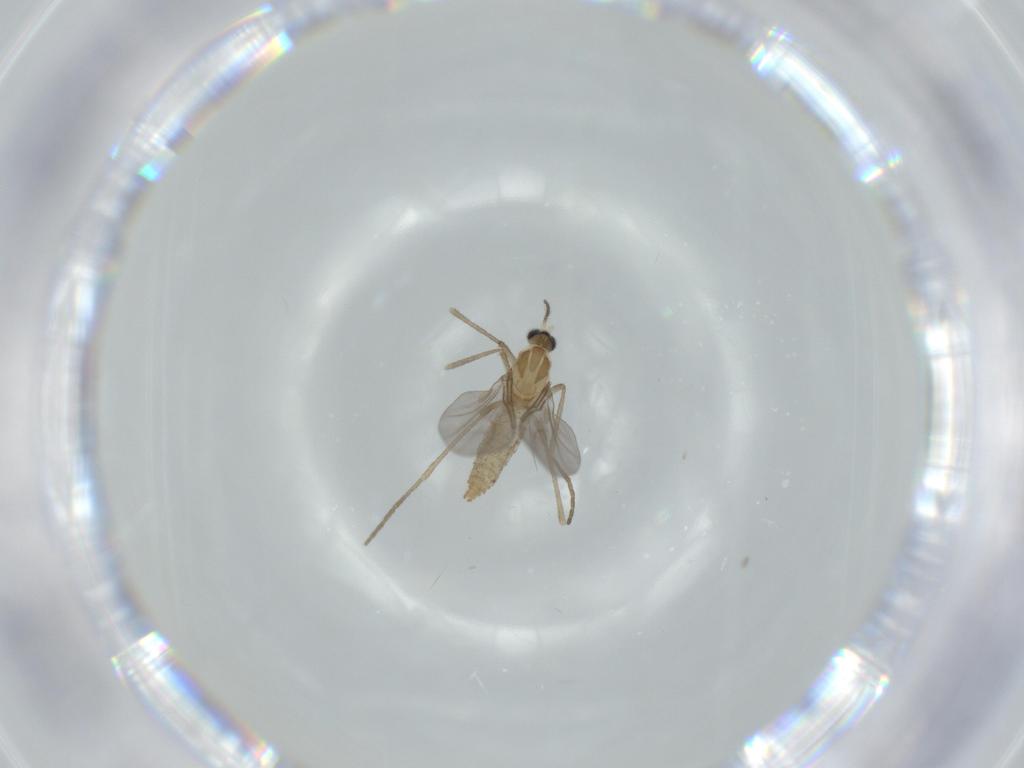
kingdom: Animalia
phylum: Arthropoda
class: Insecta
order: Diptera
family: Cecidomyiidae
